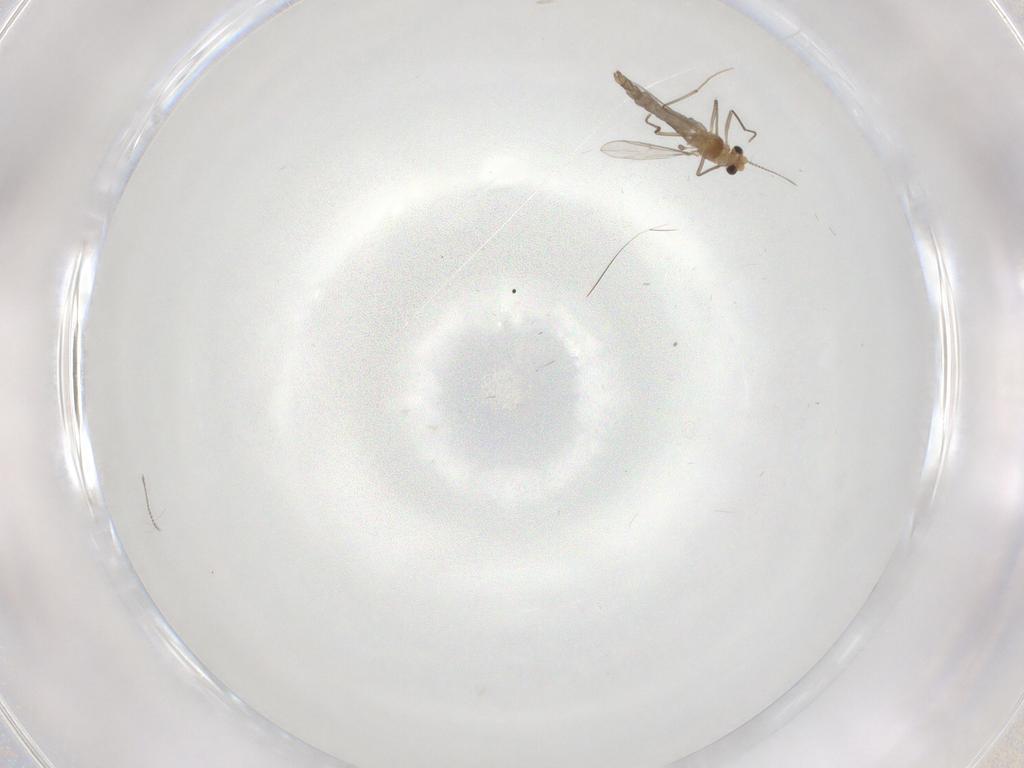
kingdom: Animalia
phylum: Arthropoda
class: Insecta
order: Diptera
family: Chironomidae
